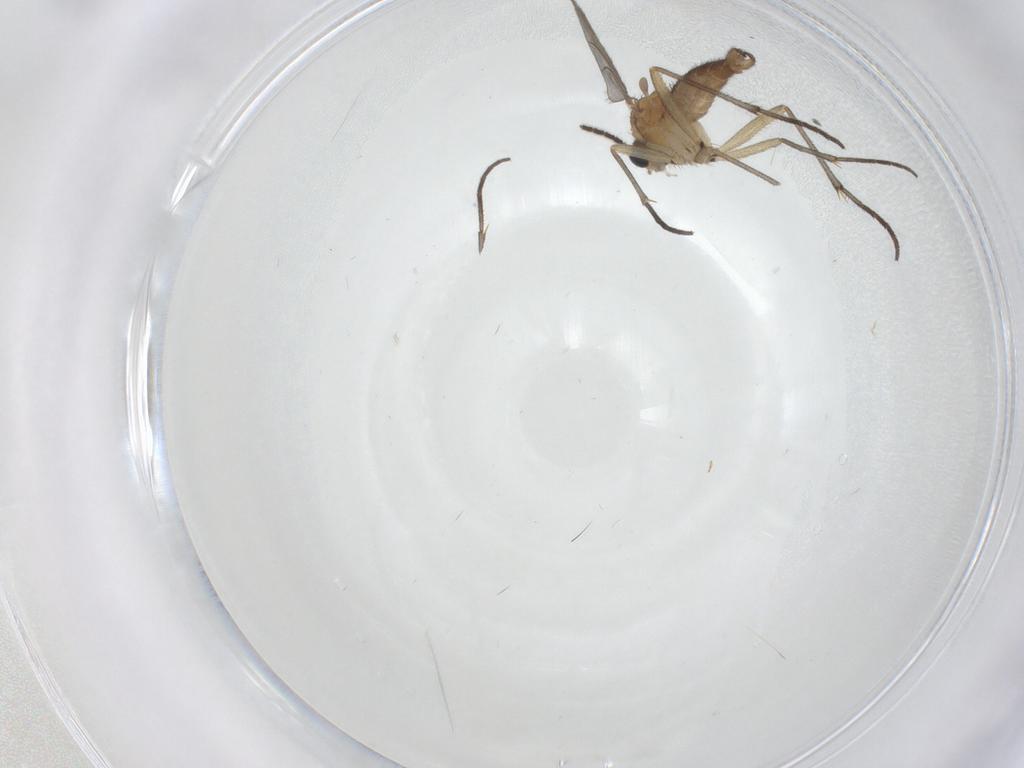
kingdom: Animalia
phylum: Arthropoda
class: Insecta
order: Diptera
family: Sciaridae
